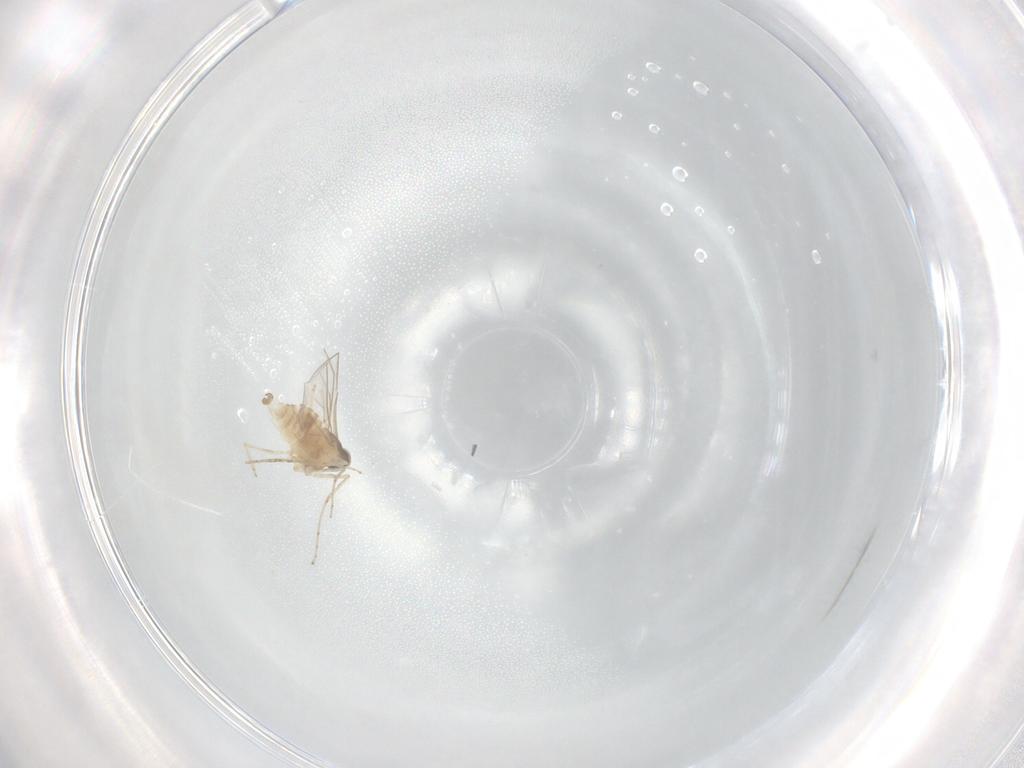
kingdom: Animalia
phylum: Arthropoda
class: Insecta
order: Diptera
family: Cecidomyiidae
